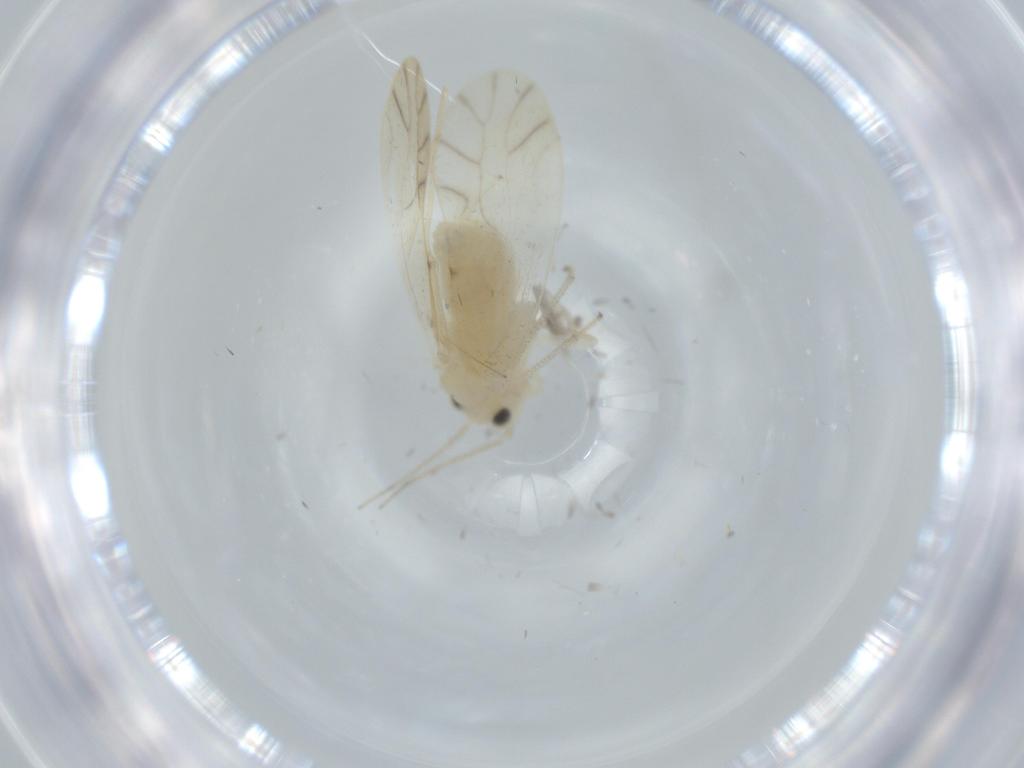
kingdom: Animalia
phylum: Arthropoda
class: Insecta
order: Psocodea
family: Caeciliusidae
